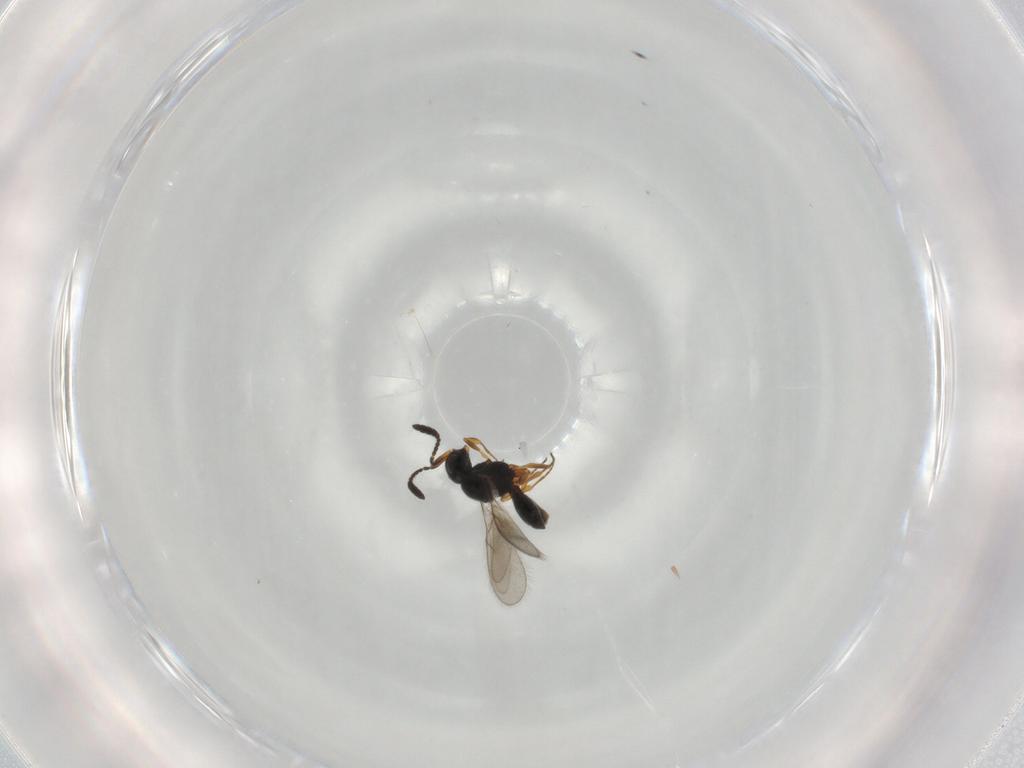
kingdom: Animalia
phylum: Arthropoda
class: Insecta
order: Hymenoptera
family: Scelionidae
